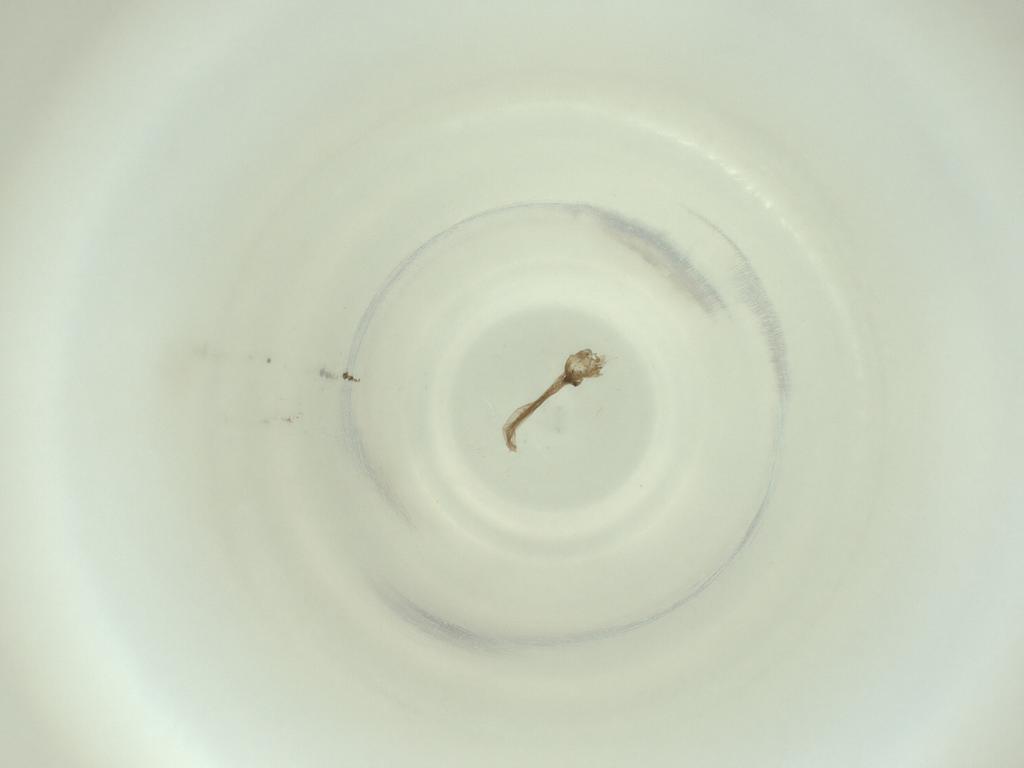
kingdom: Animalia
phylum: Arthropoda
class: Insecta
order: Diptera
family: Cecidomyiidae
